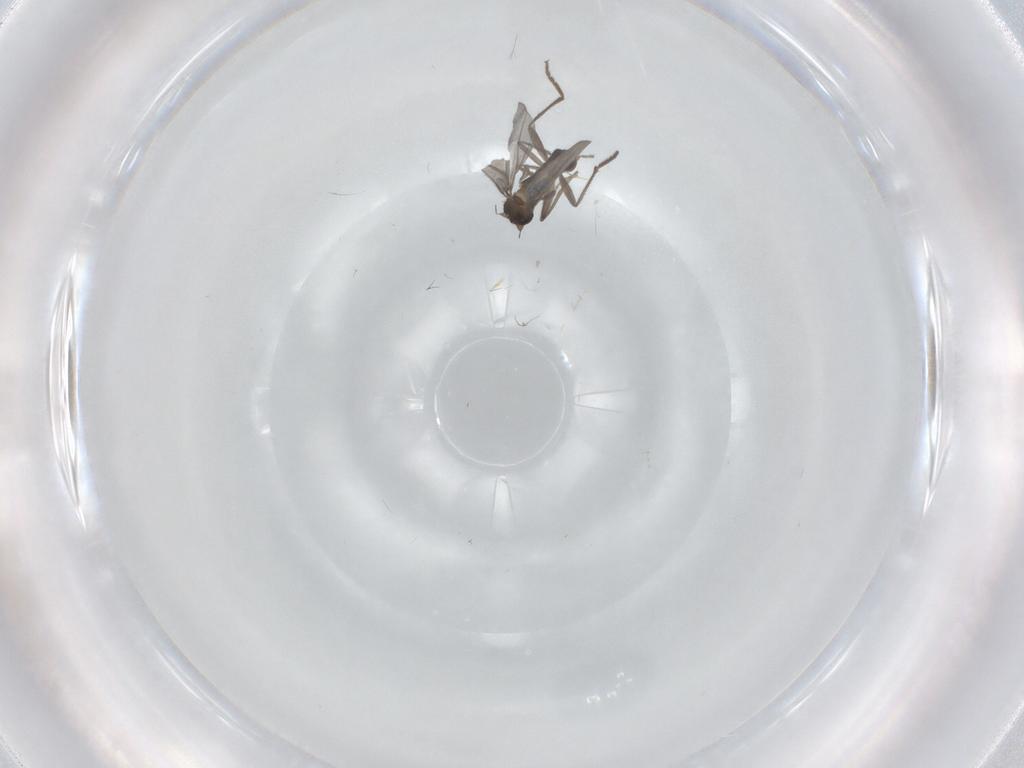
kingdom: Animalia
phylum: Arthropoda
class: Insecta
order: Diptera
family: Phoridae
